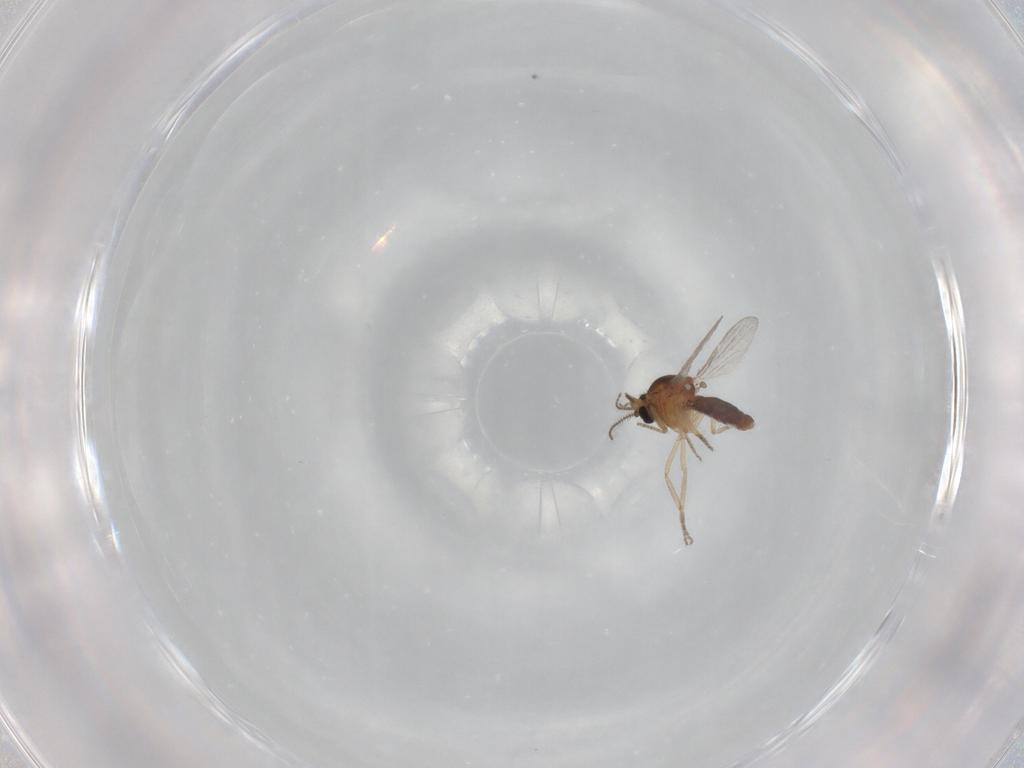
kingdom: Animalia
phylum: Arthropoda
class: Insecta
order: Diptera
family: Ceratopogonidae
